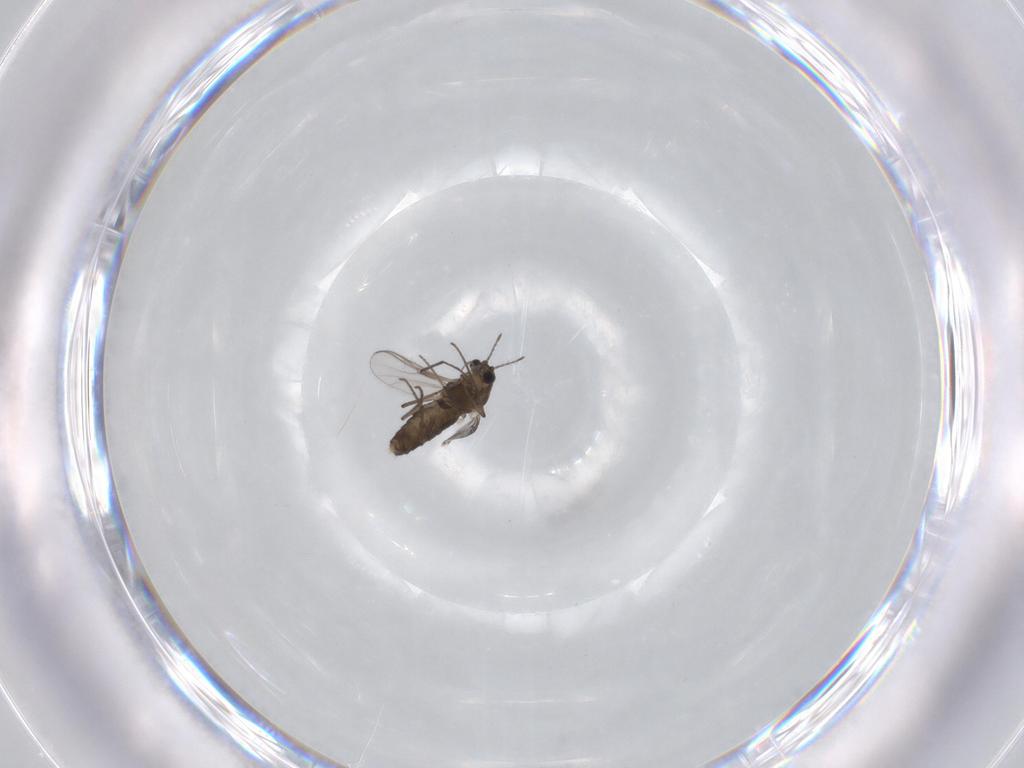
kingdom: Animalia
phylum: Arthropoda
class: Insecta
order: Diptera
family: Chironomidae
